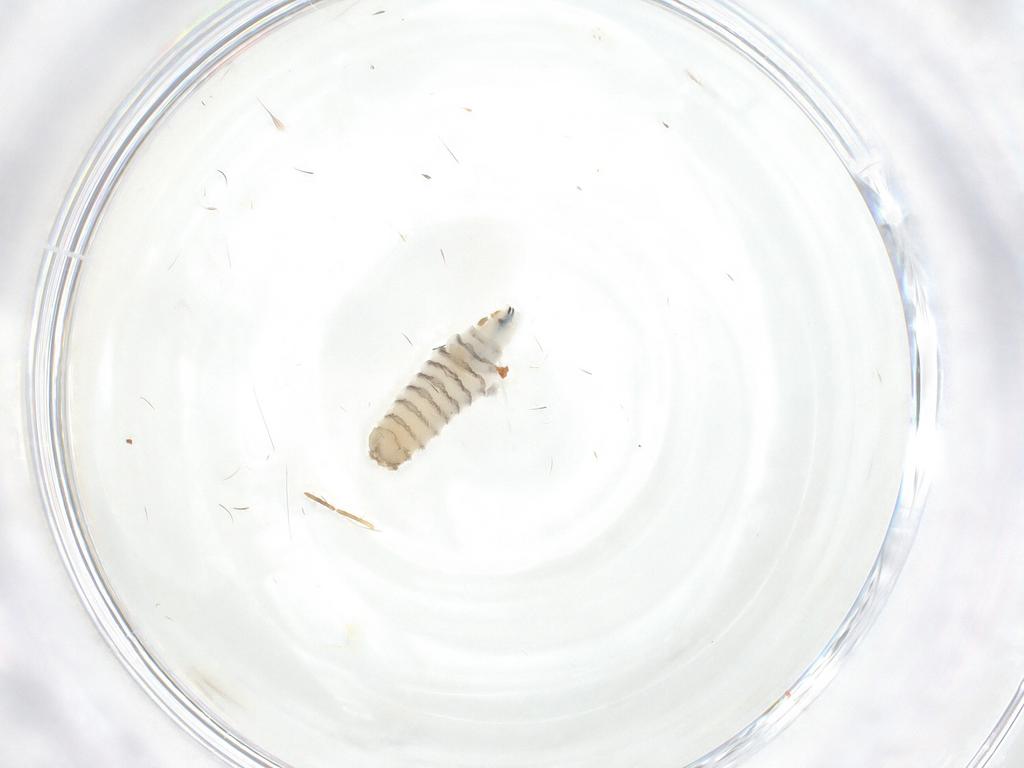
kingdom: Animalia
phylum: Arthropoda
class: Insecta
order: Diptera
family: Sarcophagidae
